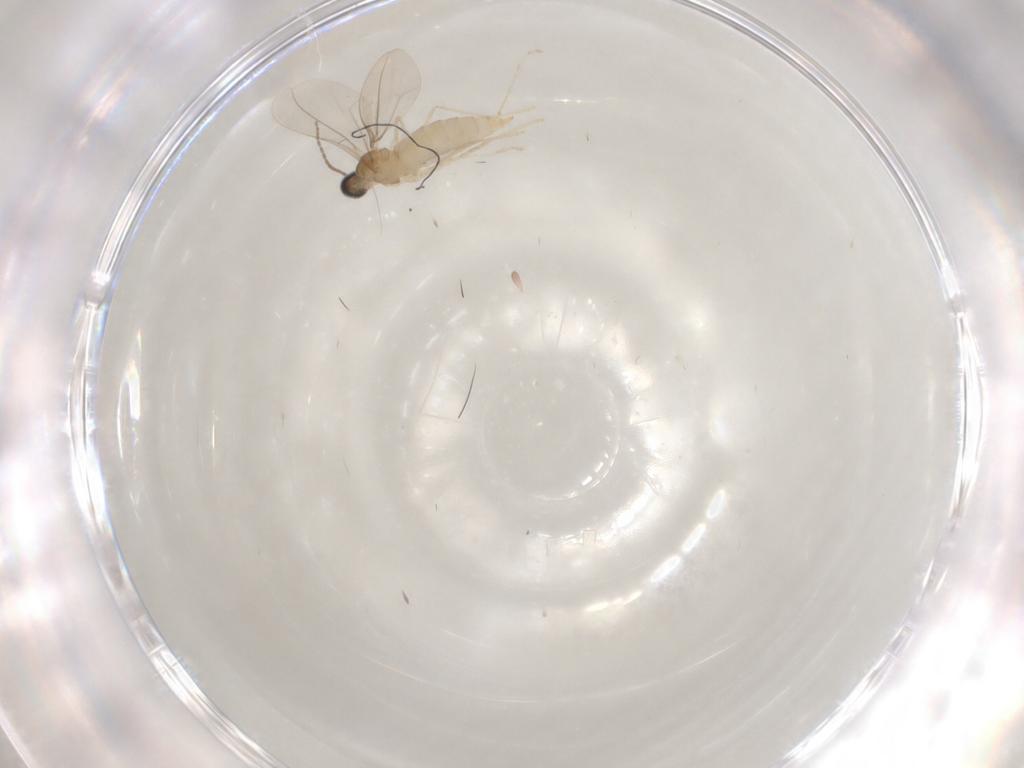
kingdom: Animalia
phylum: Arthropoda
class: Insecta
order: Diptera
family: Cecidomyiidae
